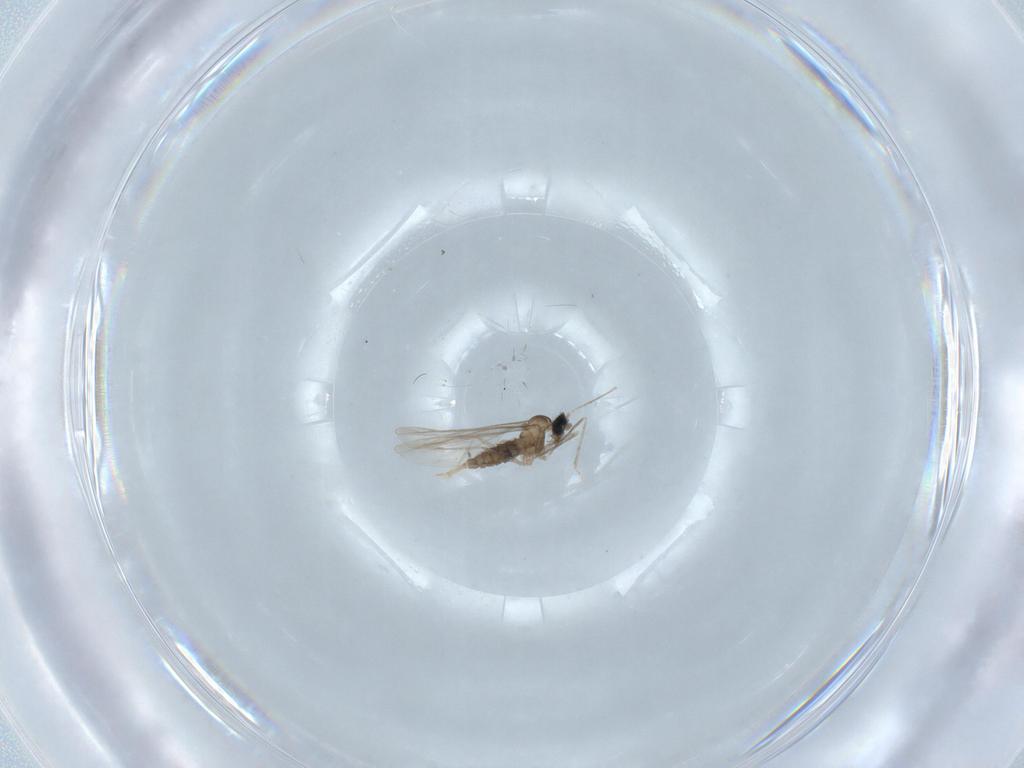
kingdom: Animalia
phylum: Arthropoda
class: Insecta
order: Diptera
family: Cecidomyiidae
